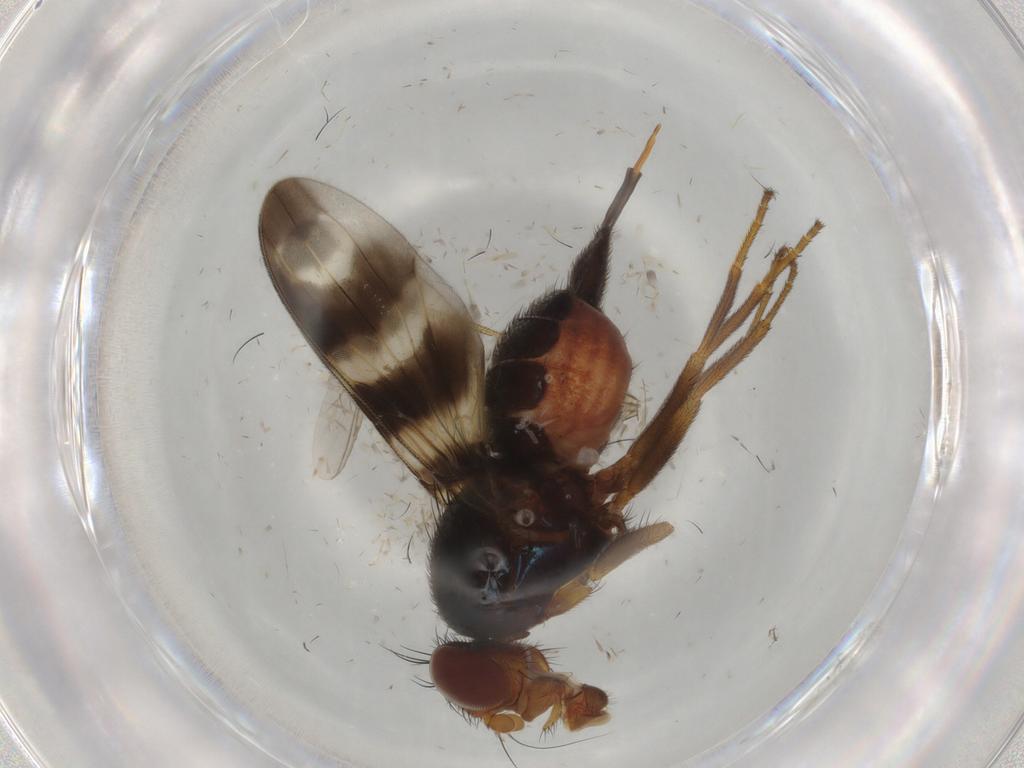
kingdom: Animalia
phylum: Arthropoda
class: Insecta
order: Diptera
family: Ulidiidae
